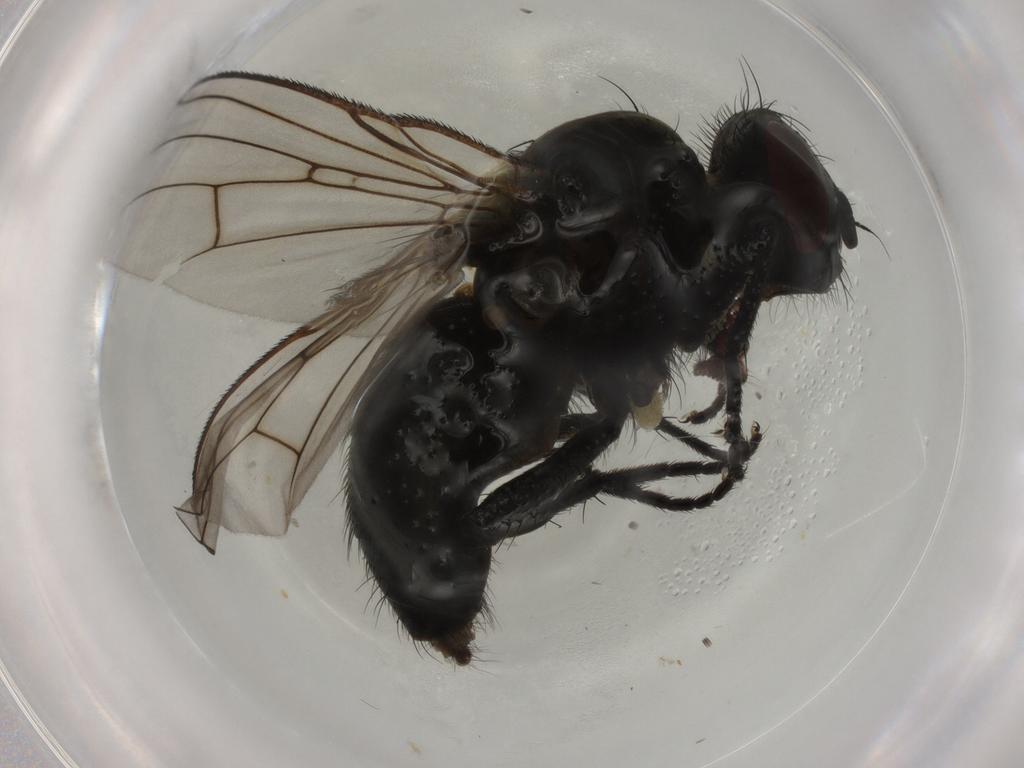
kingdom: Animalia
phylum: Arthropoda
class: Insecta
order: Diptera
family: Muscidae
